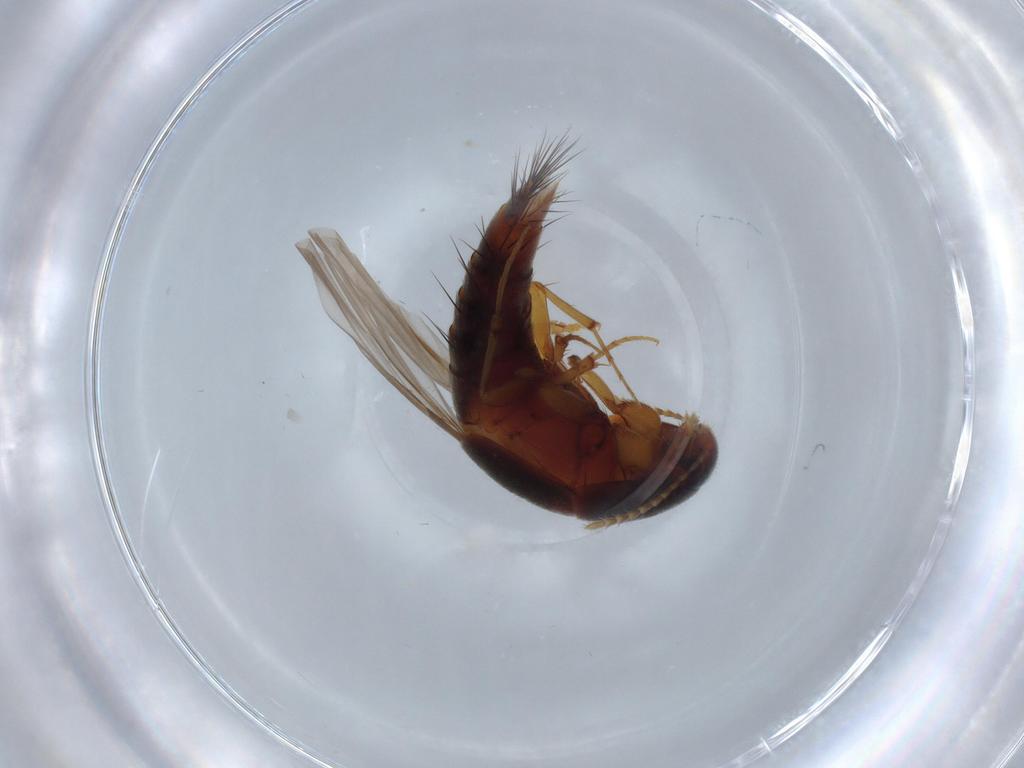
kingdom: Animalia
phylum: Arthropoda
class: Insecta
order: Coleoptera
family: Staphylinidae
